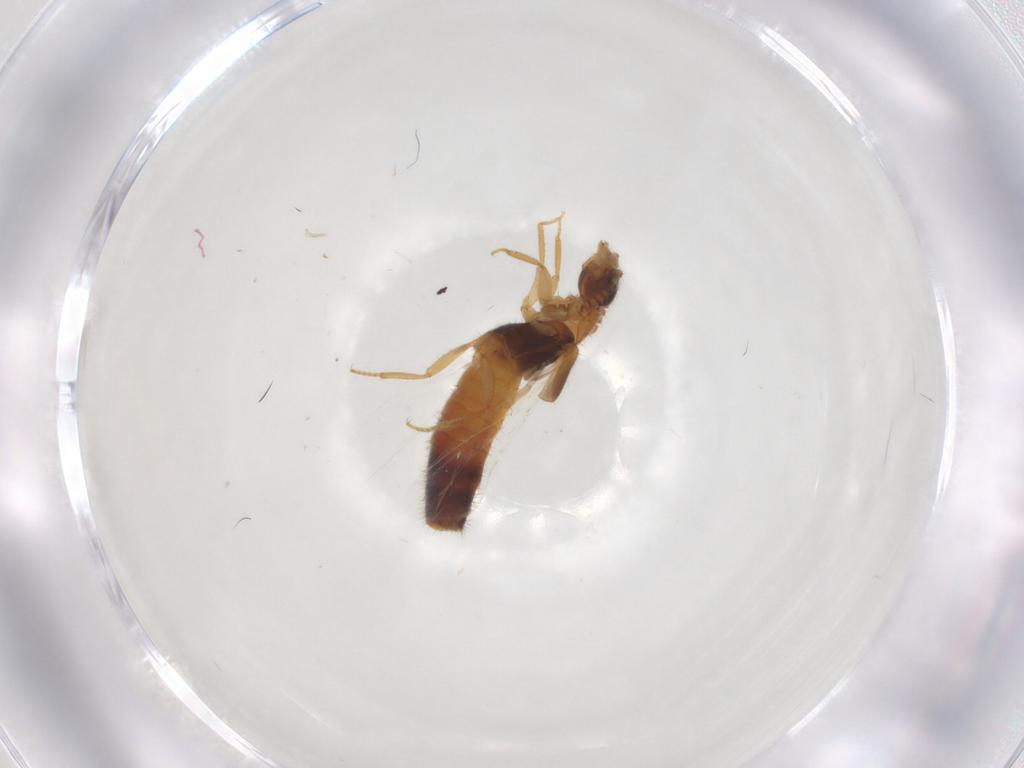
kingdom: Animalia
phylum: Arthropoda
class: Insecta
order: Coleoptera
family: Staphylinidae
